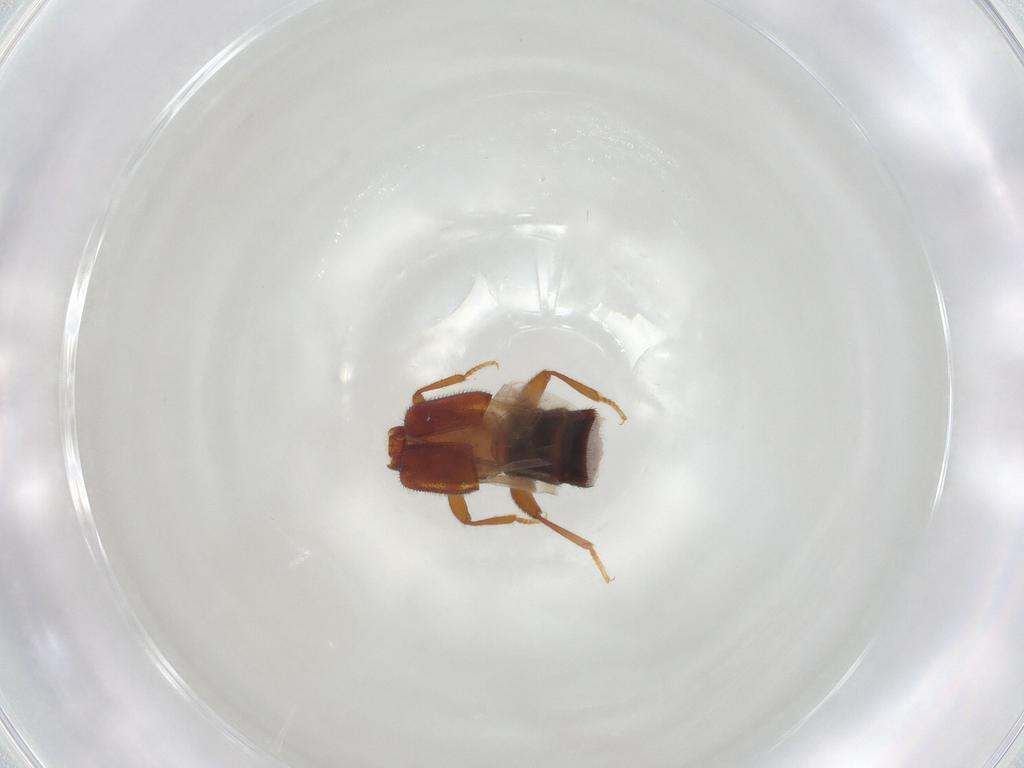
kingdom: Animalia
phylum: Arthropoda
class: Insecta
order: Coleoptera
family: Staphylinidae
